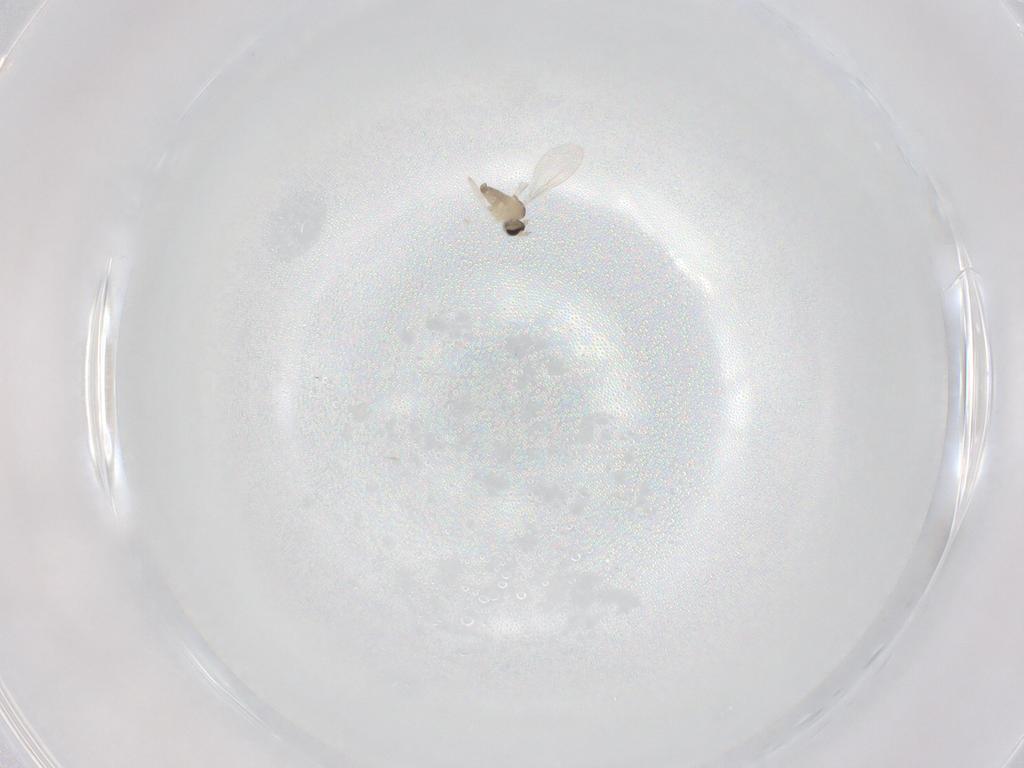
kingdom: Animalia
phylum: Arthropoda
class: Insecta
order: Diptera
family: Cecidomyiidae
